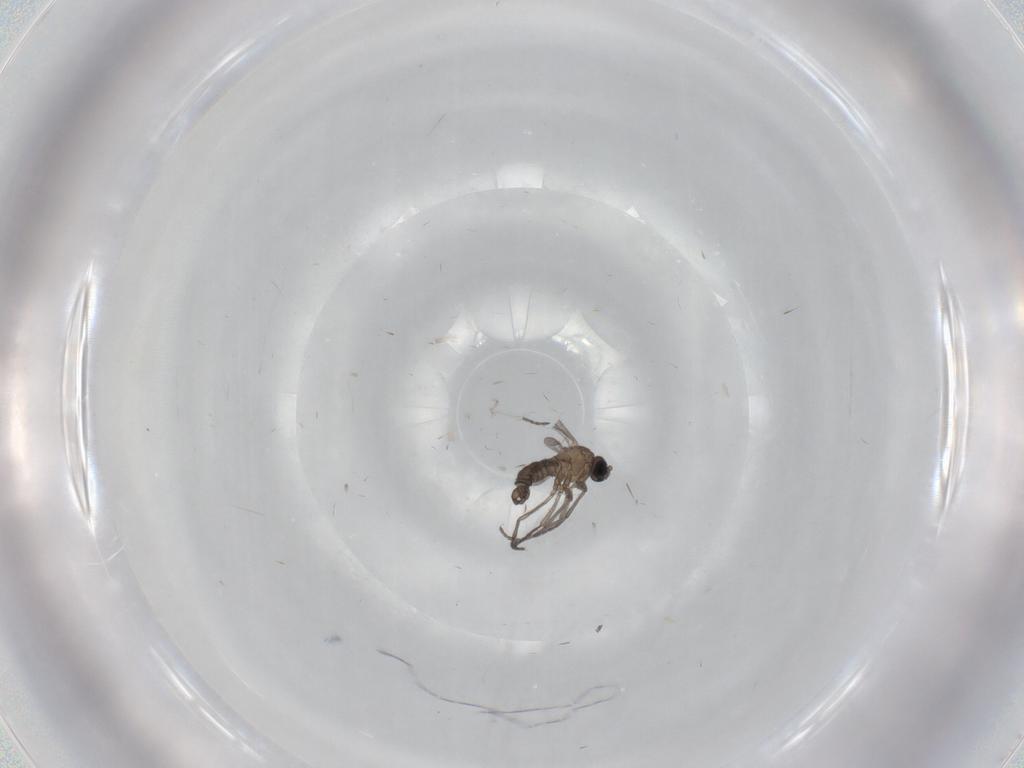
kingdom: Animalia
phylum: Arthropoda
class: Insecta
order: Diptera
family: Sciaridae
